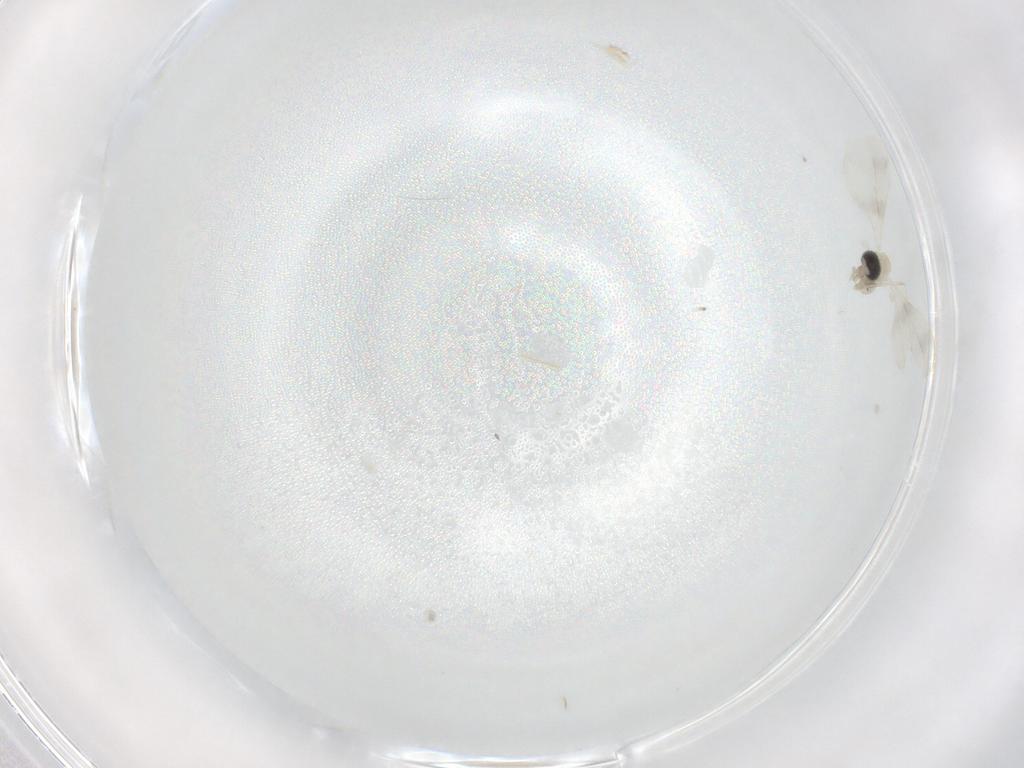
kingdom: Animalia
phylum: Arthropoda
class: Insecta
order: Diptera
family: Cecidomyiidae
